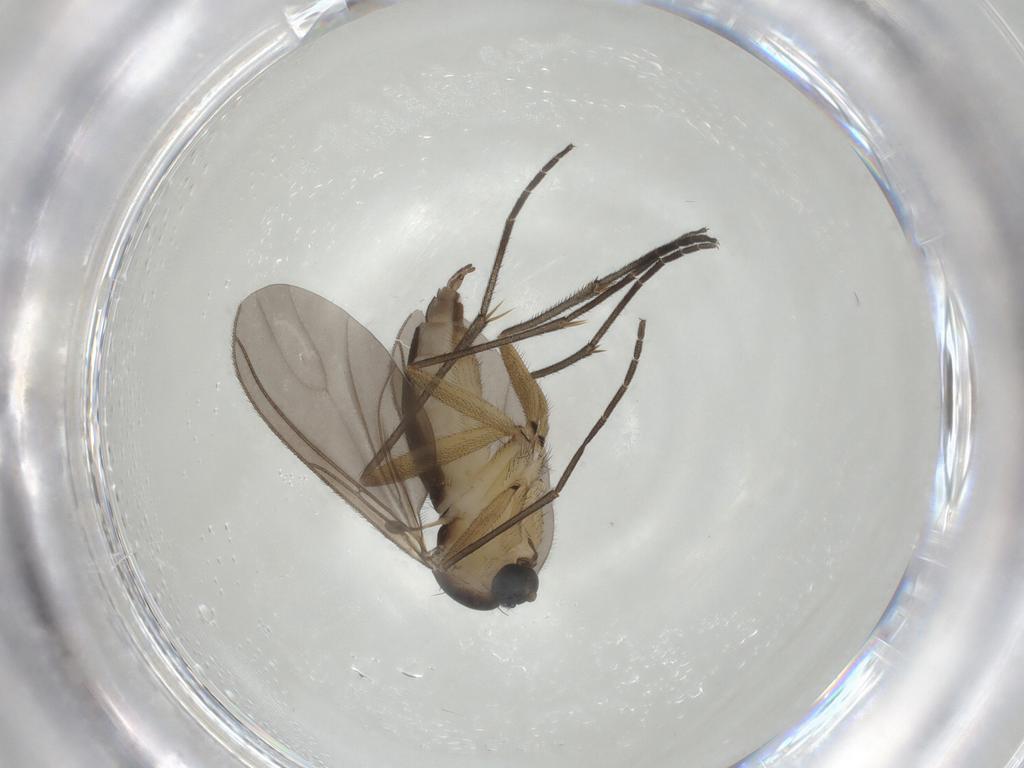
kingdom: Animalia
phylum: Arthropoda
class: Insecta
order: Diptera
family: Sciaridae
